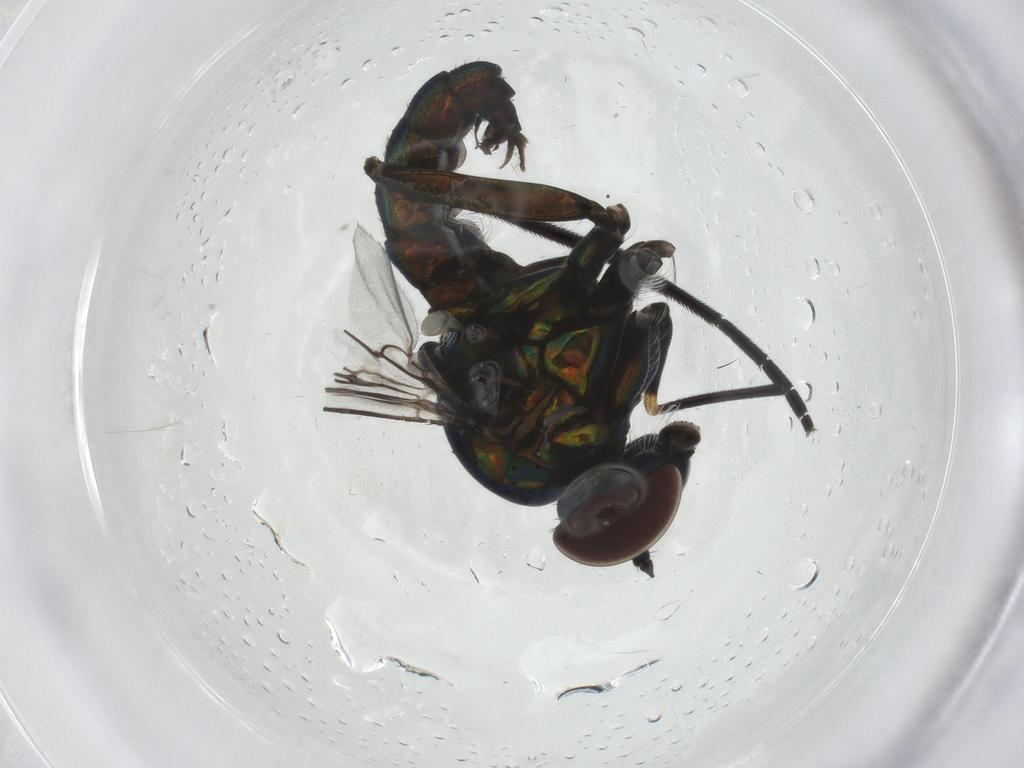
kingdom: Animalia
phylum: Arthropoda
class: Insecta
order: Diptera
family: Dolichopodidae
